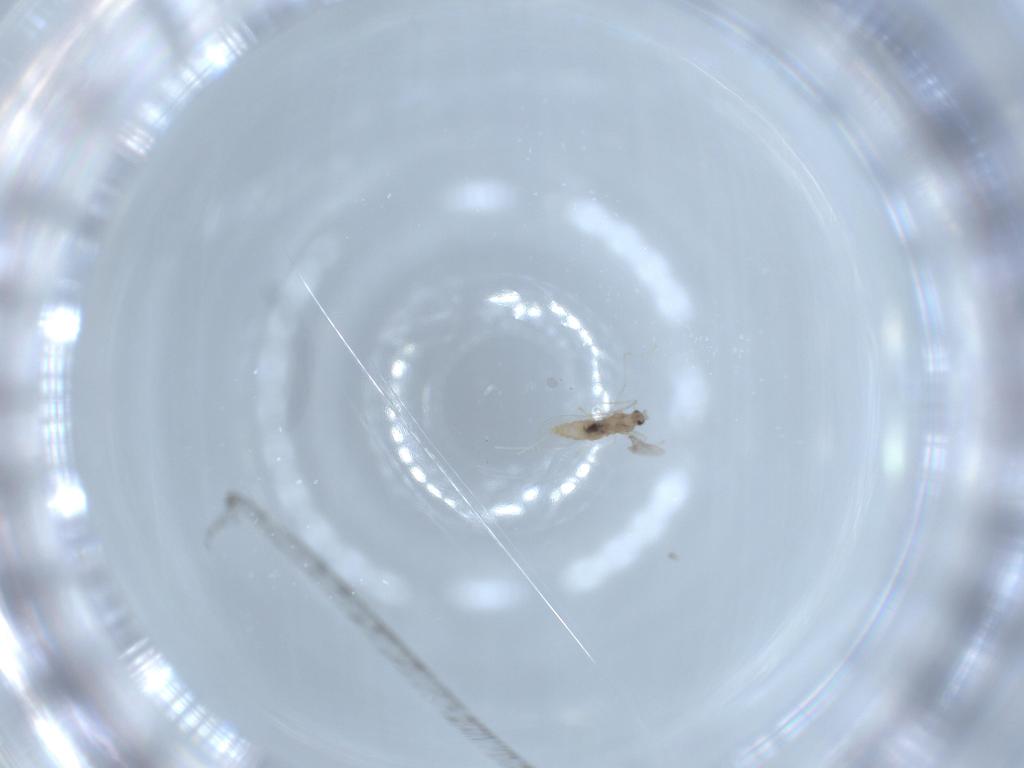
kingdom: Animalia
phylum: Arthropoda
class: Insecta
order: Diptera
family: Cecidomyiidae
